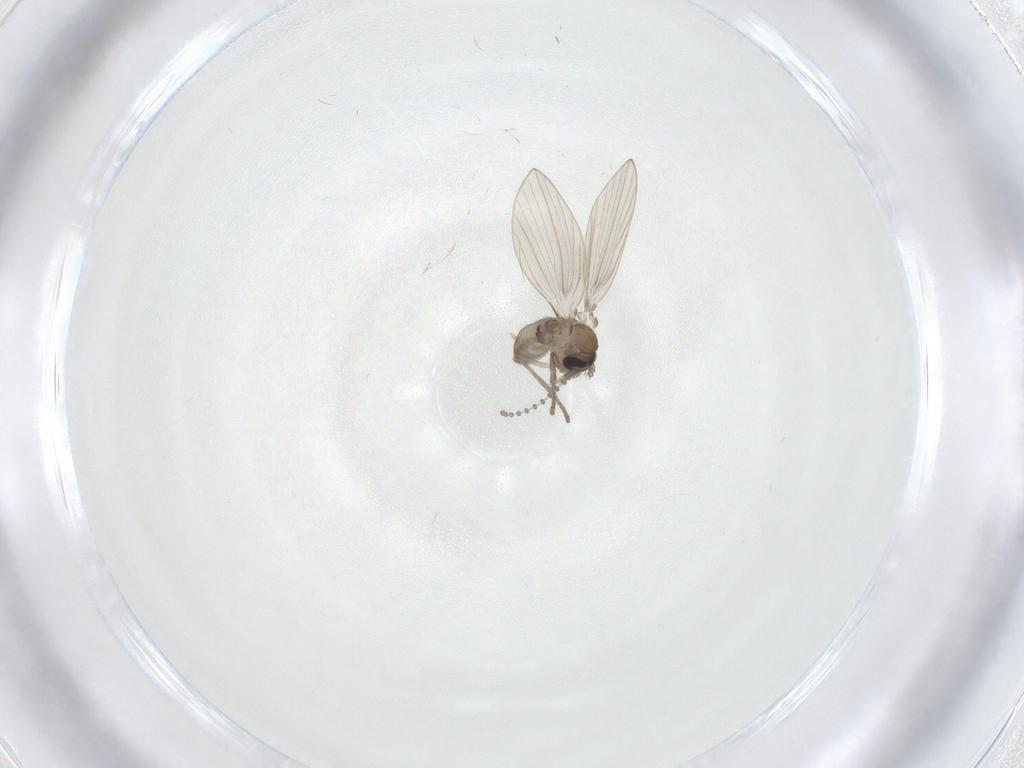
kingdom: Animalia
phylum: Arthropoda
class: Insecta
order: Diptera
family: Psychodidae
